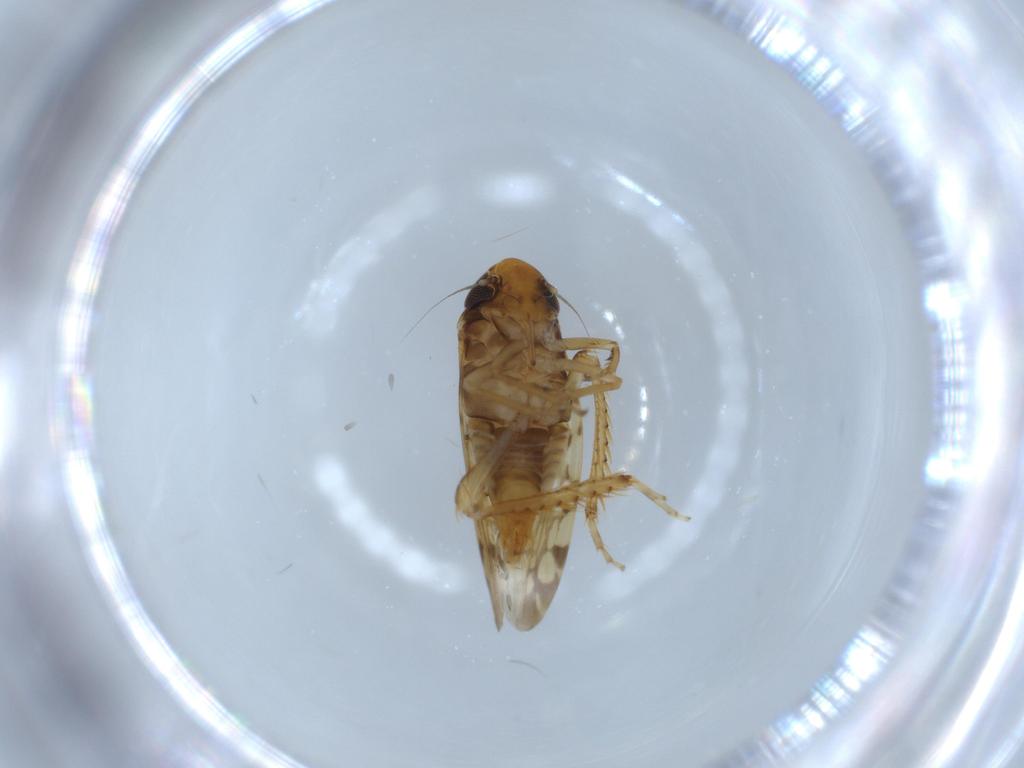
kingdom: Animalia
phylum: Arthropoda
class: Insecta
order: Hemiptera
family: Cicadellidae
